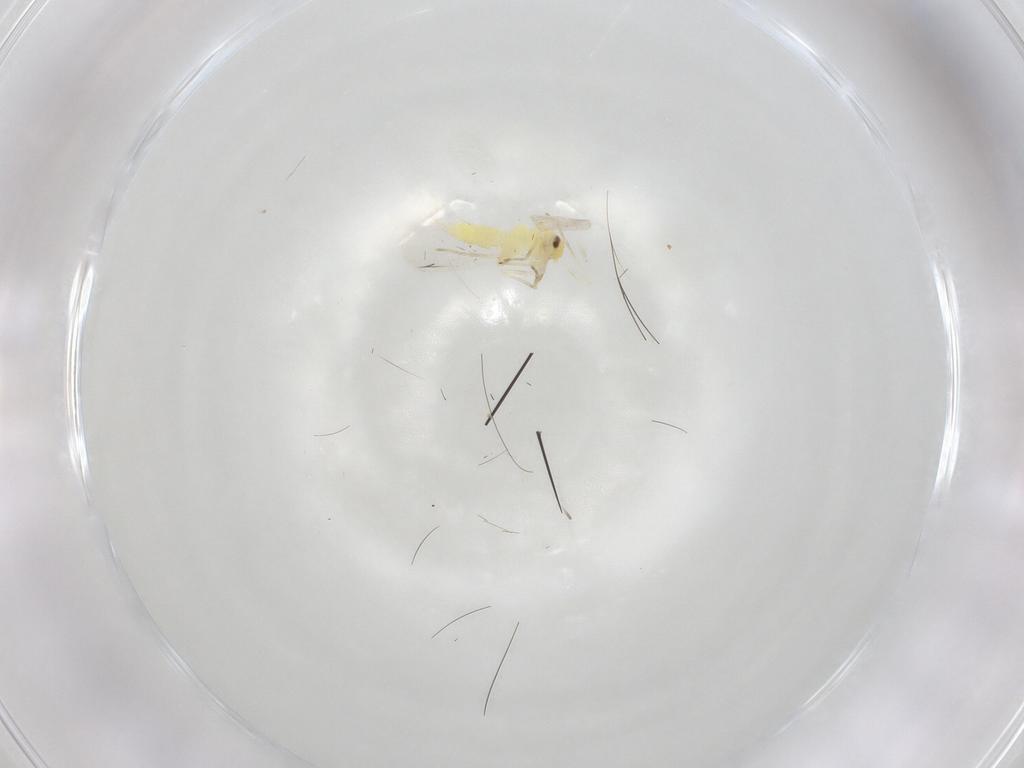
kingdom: Animalia
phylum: Arthropoda
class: Insecta
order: Hemiptera
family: Aleyrodidae
